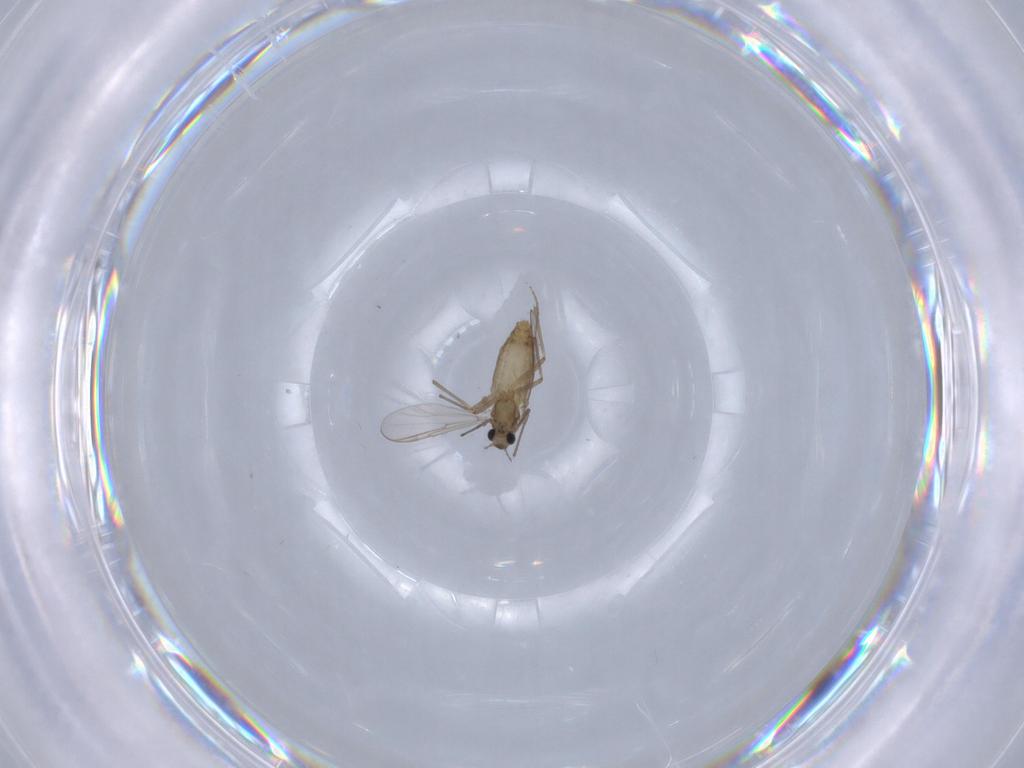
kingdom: Animalia
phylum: Arthropoda
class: Insecta
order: Diptera
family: Chironomidae
